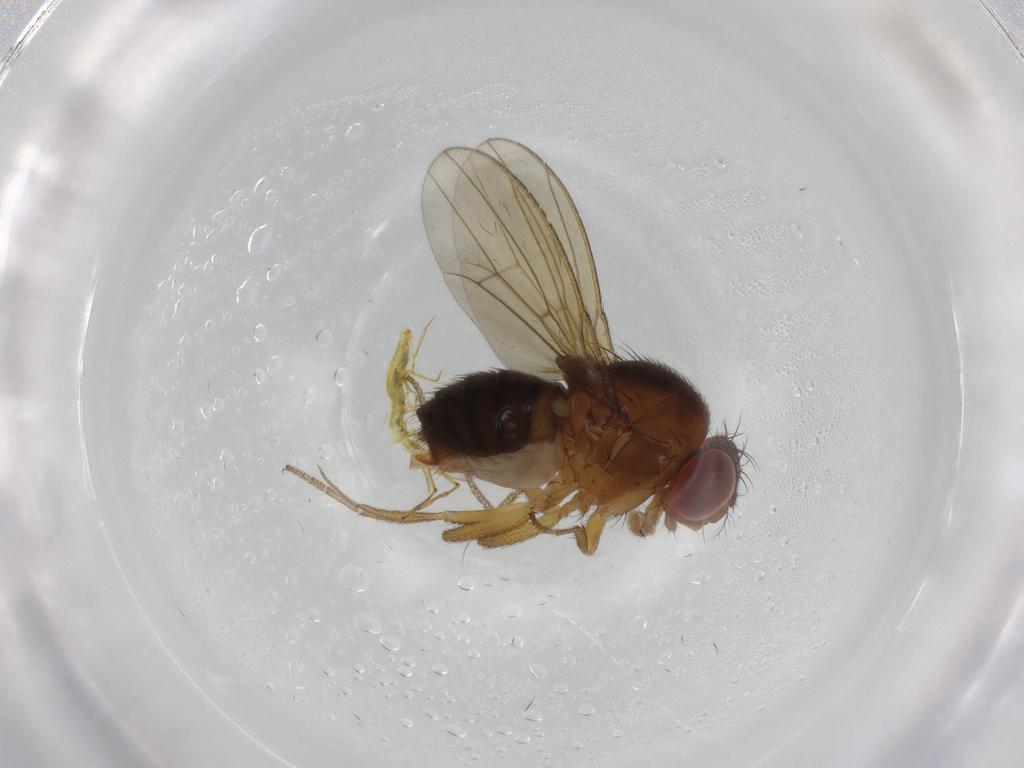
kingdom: Animalia
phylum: Arthropoda
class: Insecta
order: Diptera
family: Drosophilidae
